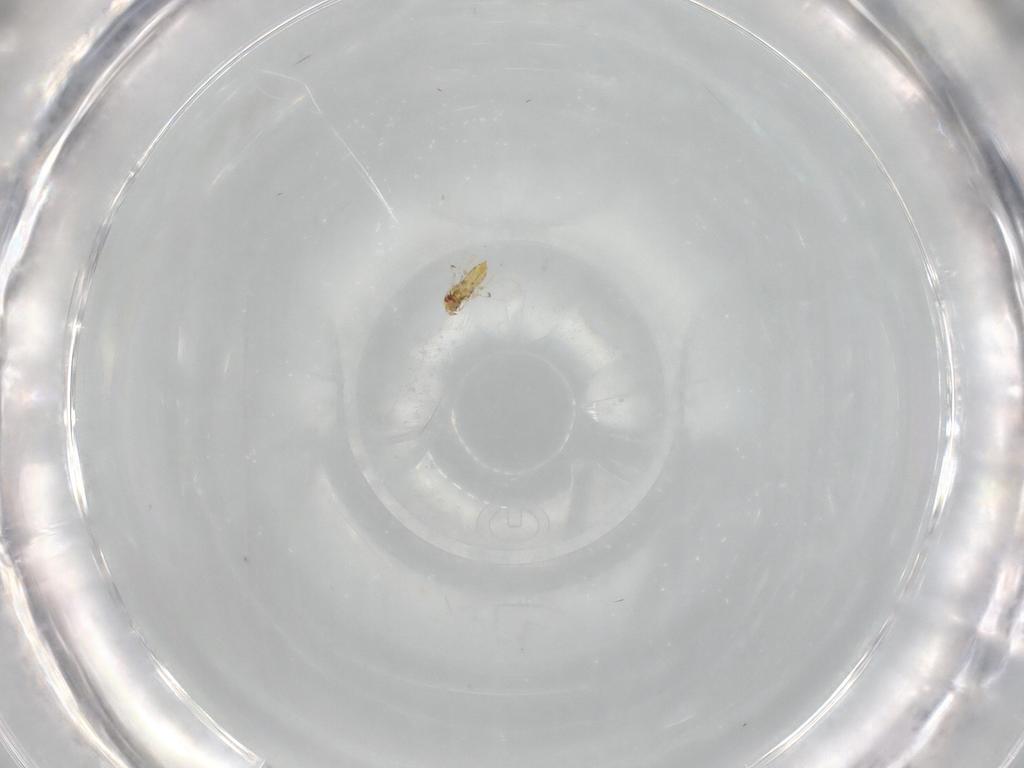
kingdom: Animalia
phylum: Arthropoda
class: Insecta
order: Hymenoptera
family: Trichogrammatidae
